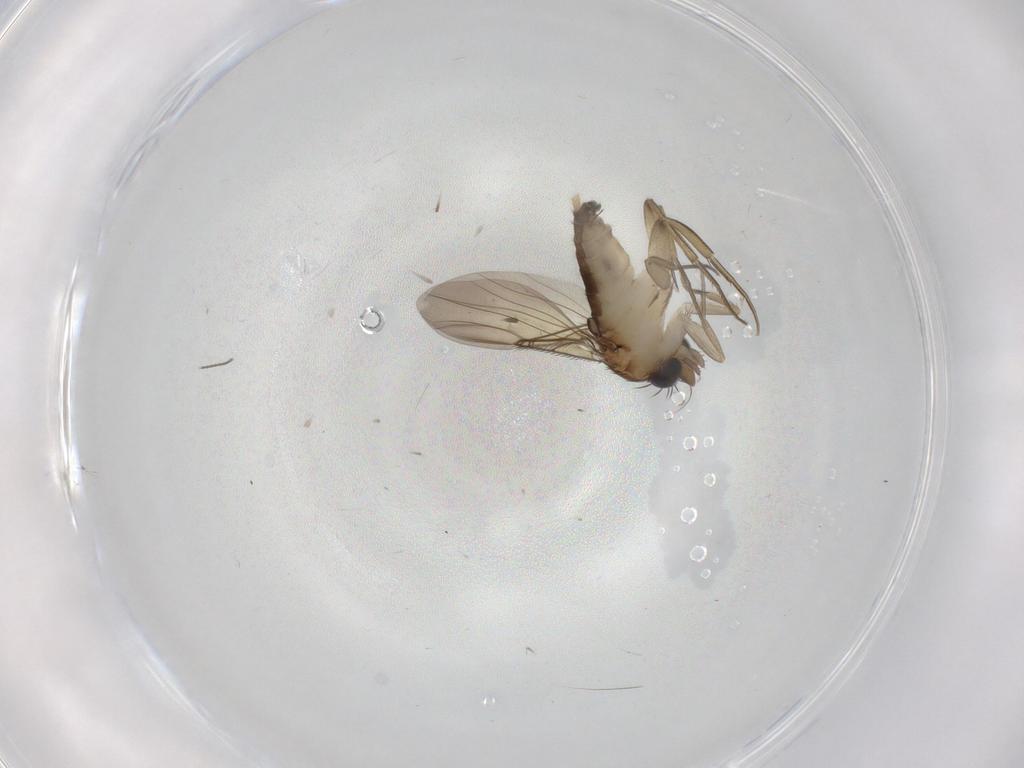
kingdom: Animalia
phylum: Arthropoda
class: Insecta
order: Diptera
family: Phoridae
